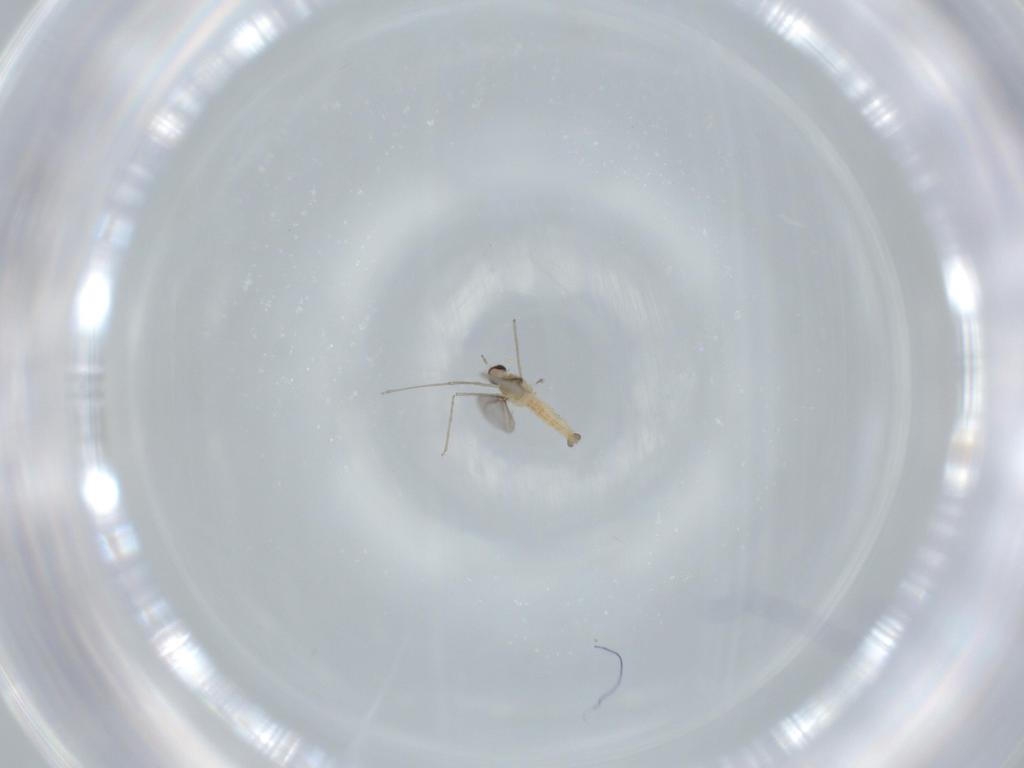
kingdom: Animalia
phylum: Arthropoda
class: Insecta
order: Diptera
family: Cecidomyiidae
